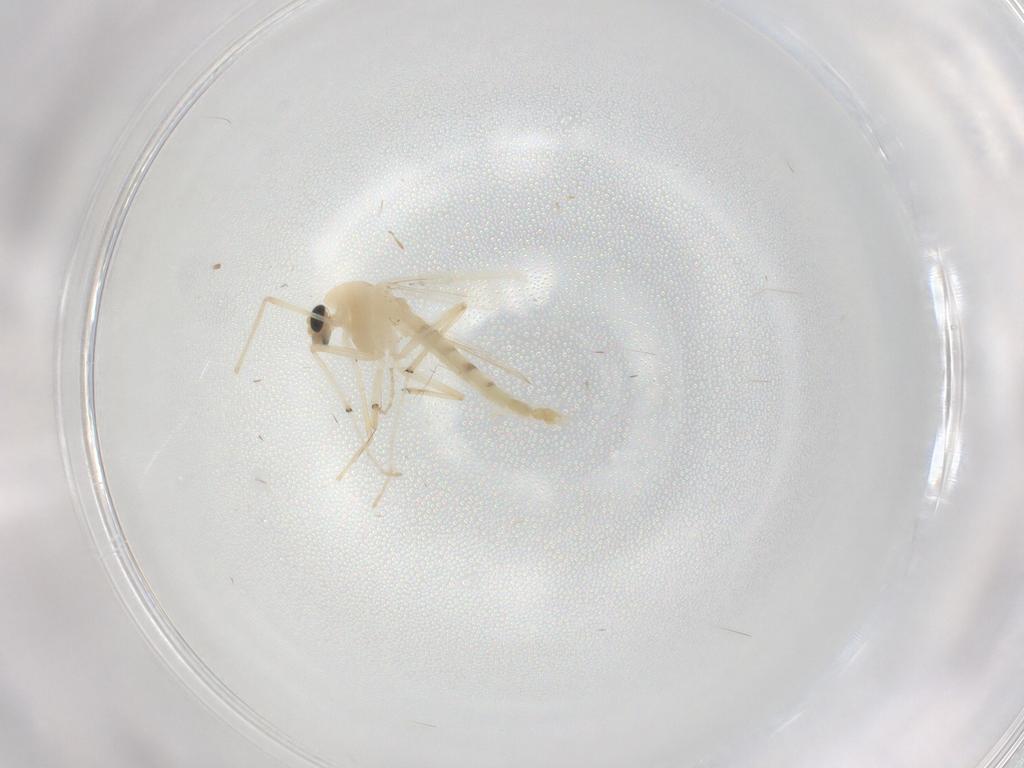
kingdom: Animalia
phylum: Arthropoda
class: Insecta
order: Diptera
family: Chironomidae
